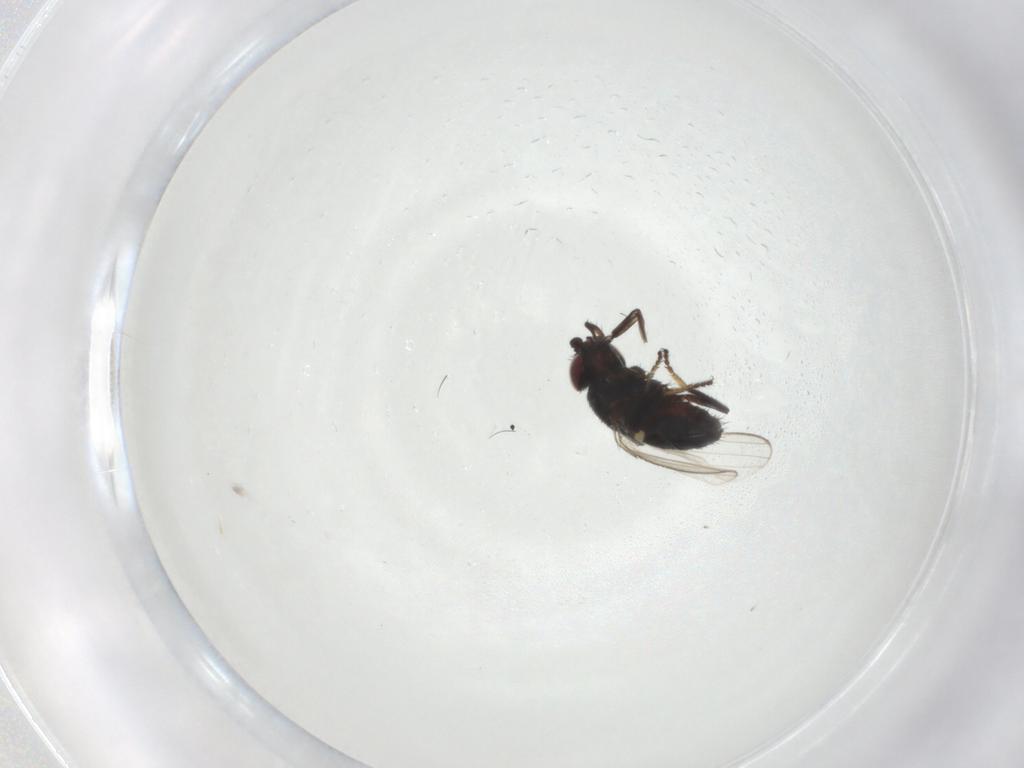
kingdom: Animalia
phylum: Arthropoda
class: Insecta
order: Diptera
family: Milichiidae
